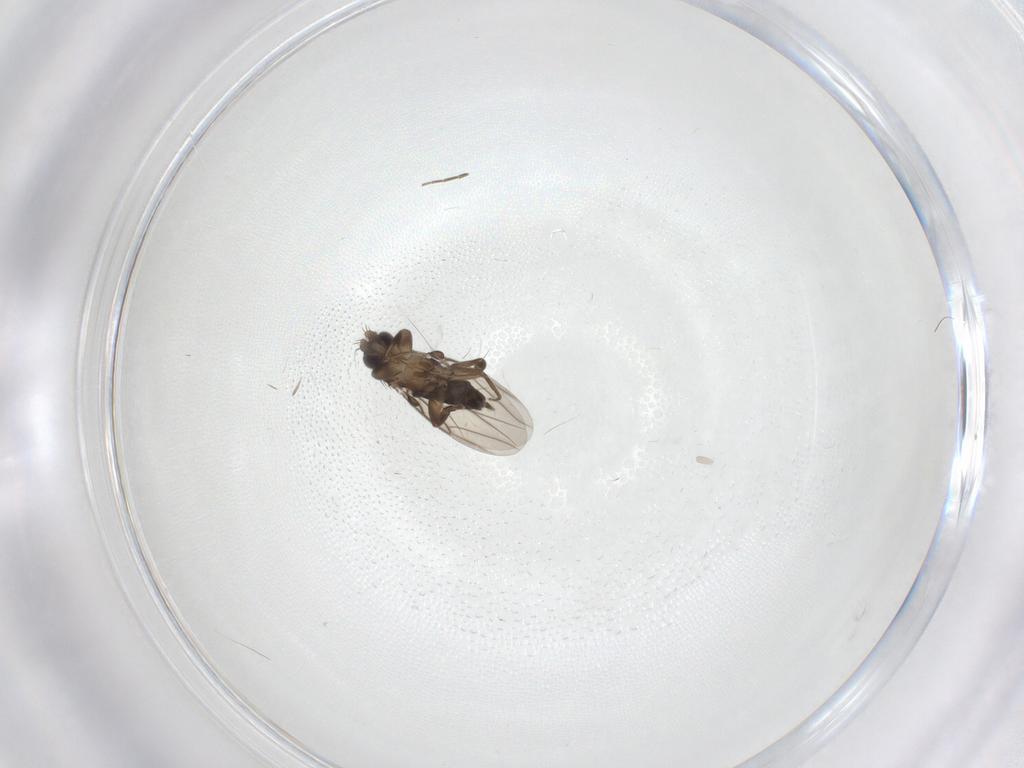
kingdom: Animalia
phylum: Arthropoda
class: Insecta
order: Diptera
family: Phoridae
